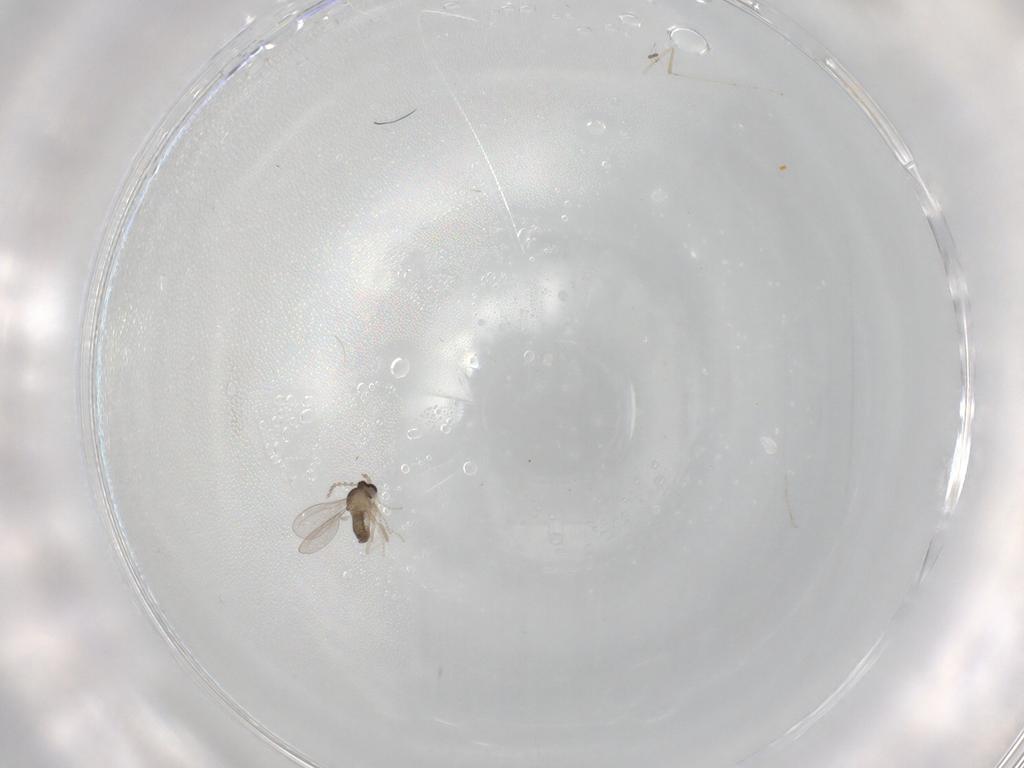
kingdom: Animalia
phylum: Arthropoda
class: Insecta
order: Diptera
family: Cecidomyiidae
